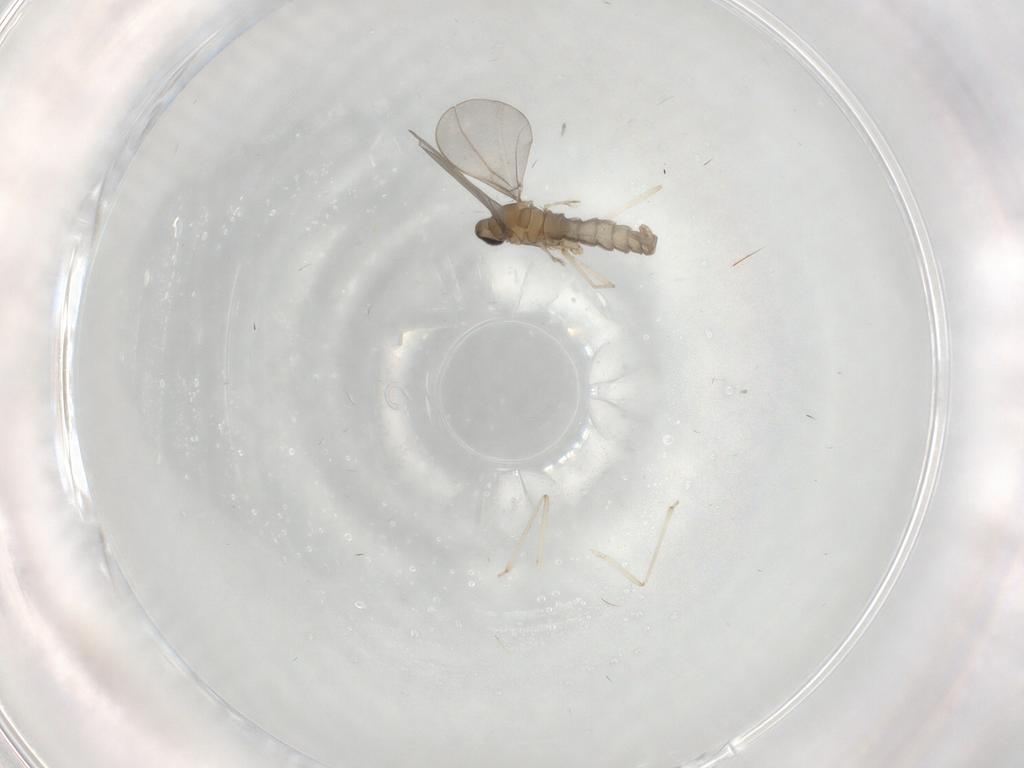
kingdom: Animalia
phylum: Arthropoda
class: Insecta
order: Diptera
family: Cecidomyiidae
